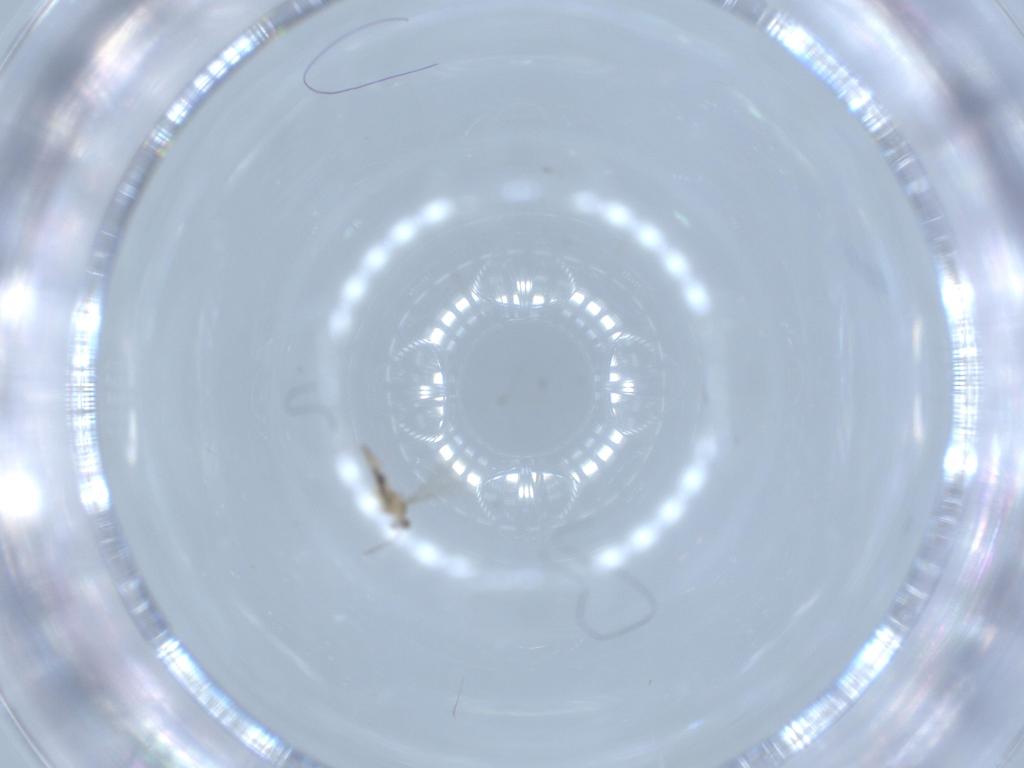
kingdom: Animalia
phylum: Arthropoda
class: Insecta
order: Diptera
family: Cecidomyiidae
